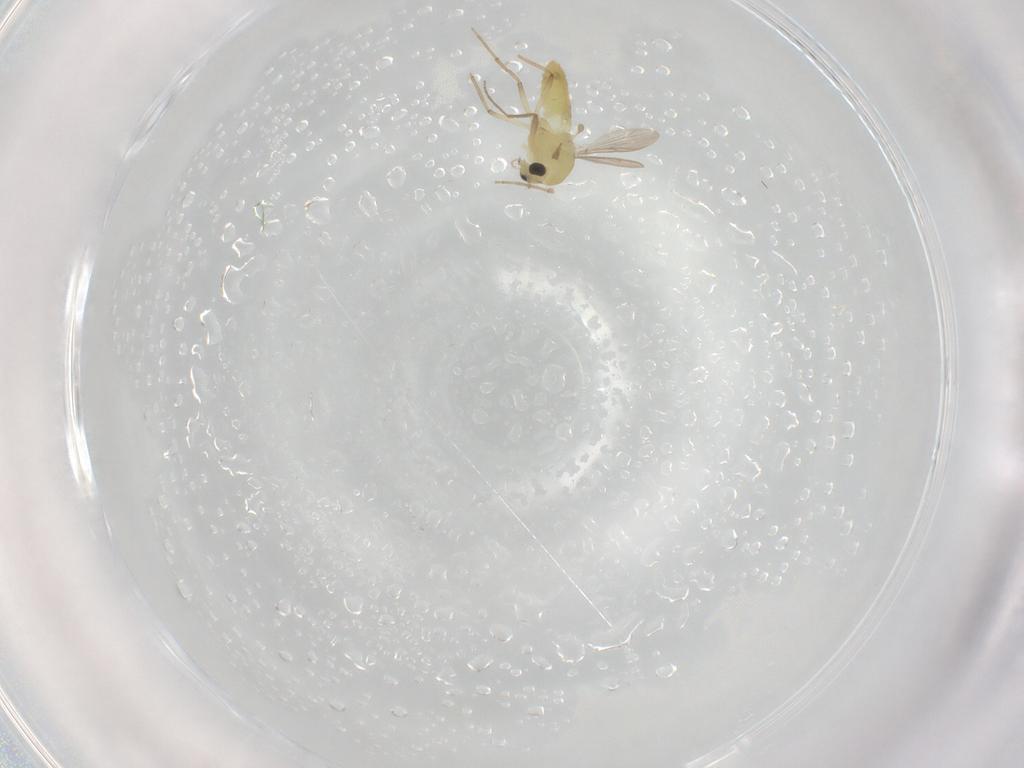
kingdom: Animalia
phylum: Arthropoda
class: Insecta
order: Diptera
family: Chironomidae
